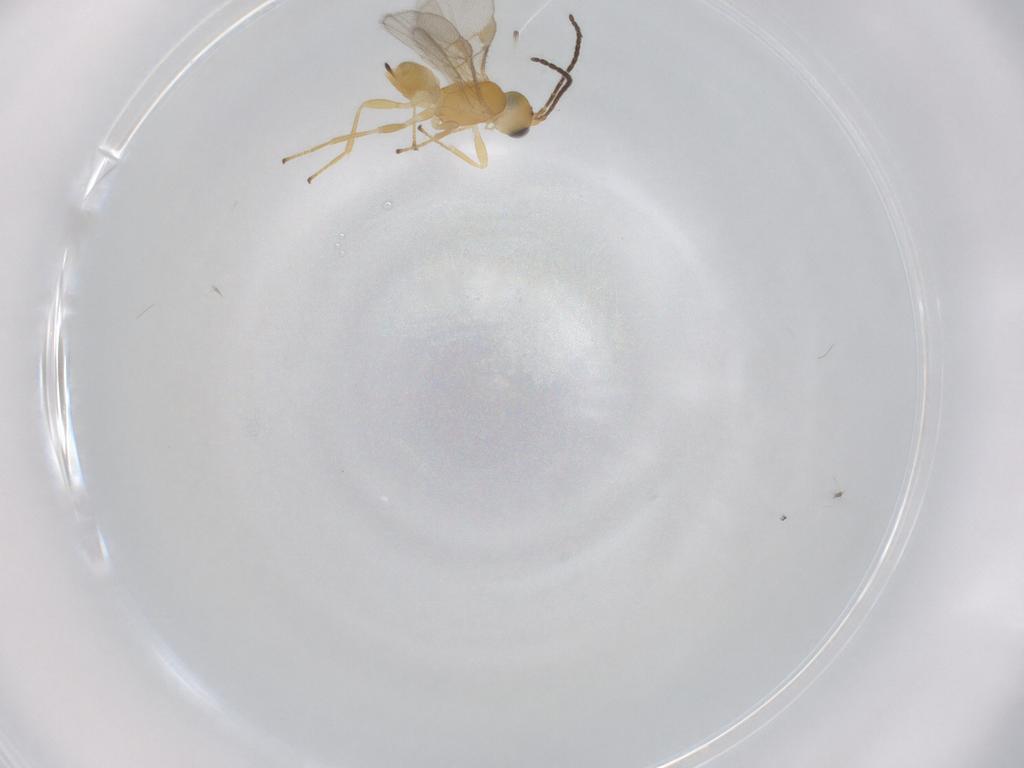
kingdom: Animalia
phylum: Arthropoda
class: Insecta
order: Hymenoptera
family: Braconidae
